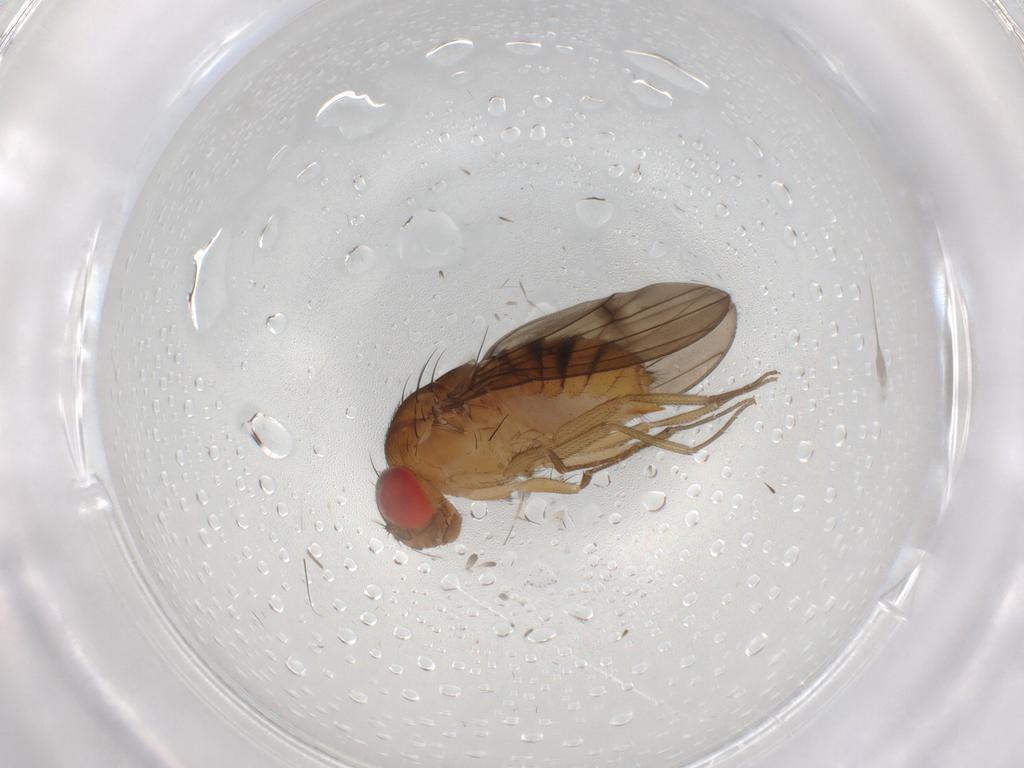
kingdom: Animalia
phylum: Arthropoda
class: Insecta
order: Diptera
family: Drosophilidae
